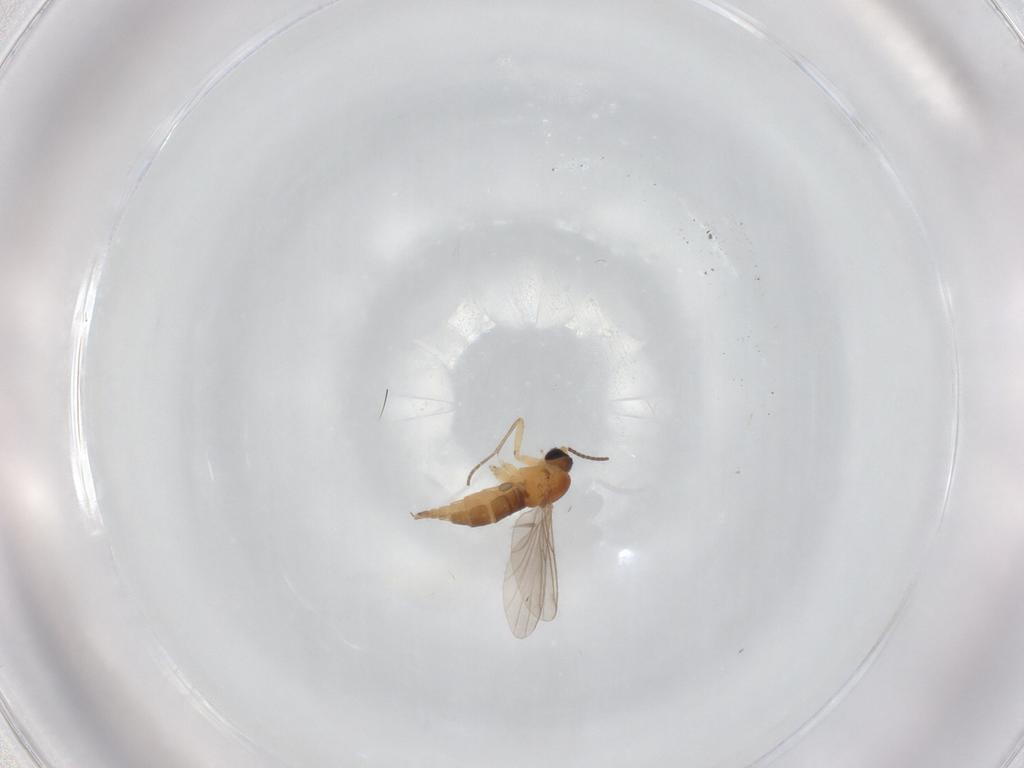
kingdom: Animalia
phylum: Arthropoda
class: Insecta
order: Diptera
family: Sciaridae
